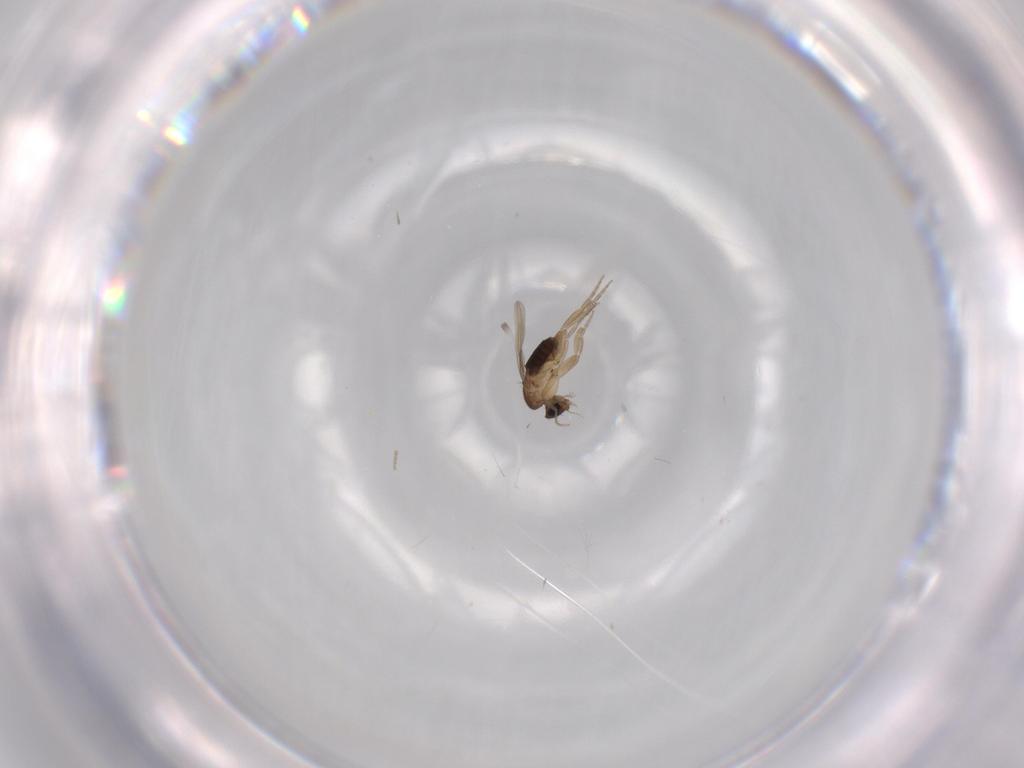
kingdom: Animalia
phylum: Arthropoda
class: Insecta
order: Diptera
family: Phoridae
